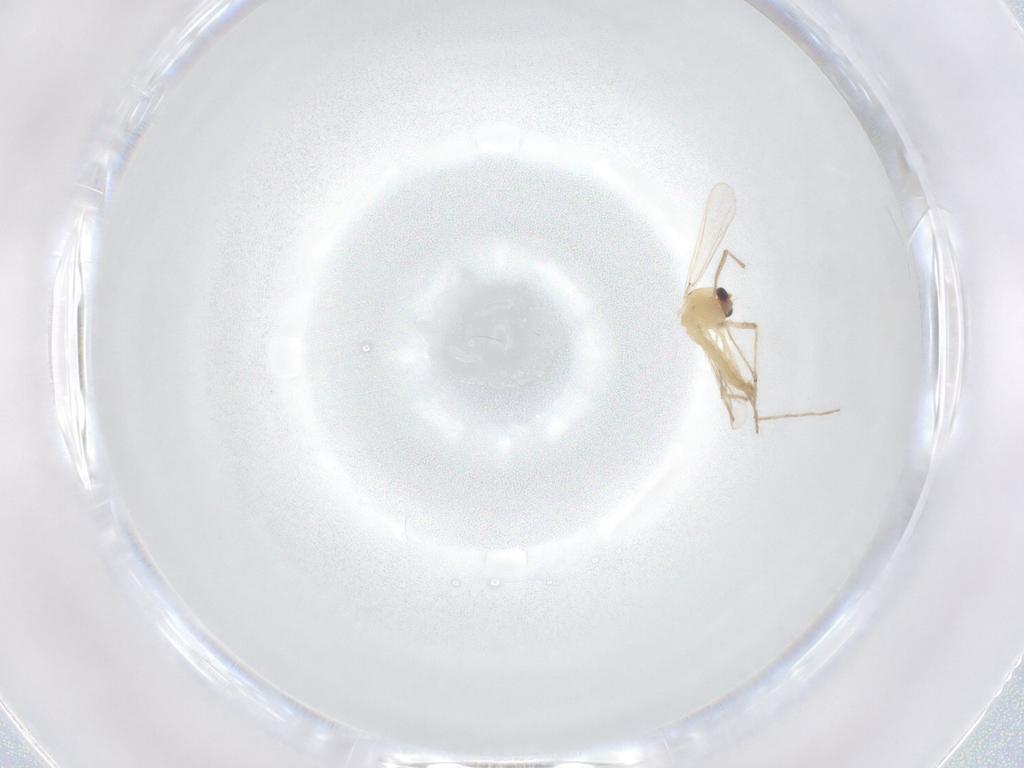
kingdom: Animalia
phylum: Arthropoda
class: Insecta
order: Diptera
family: Chironomidae
